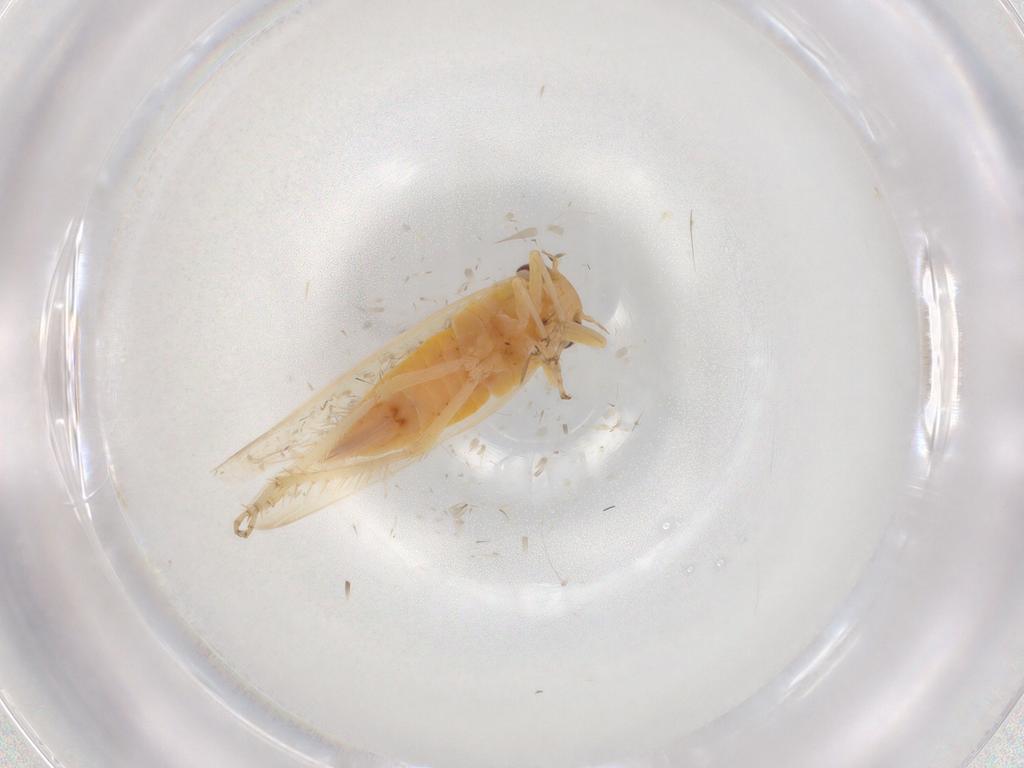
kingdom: Animalia
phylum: Arthropoda
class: Insecta
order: Hemiptera
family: Cicadellidae
